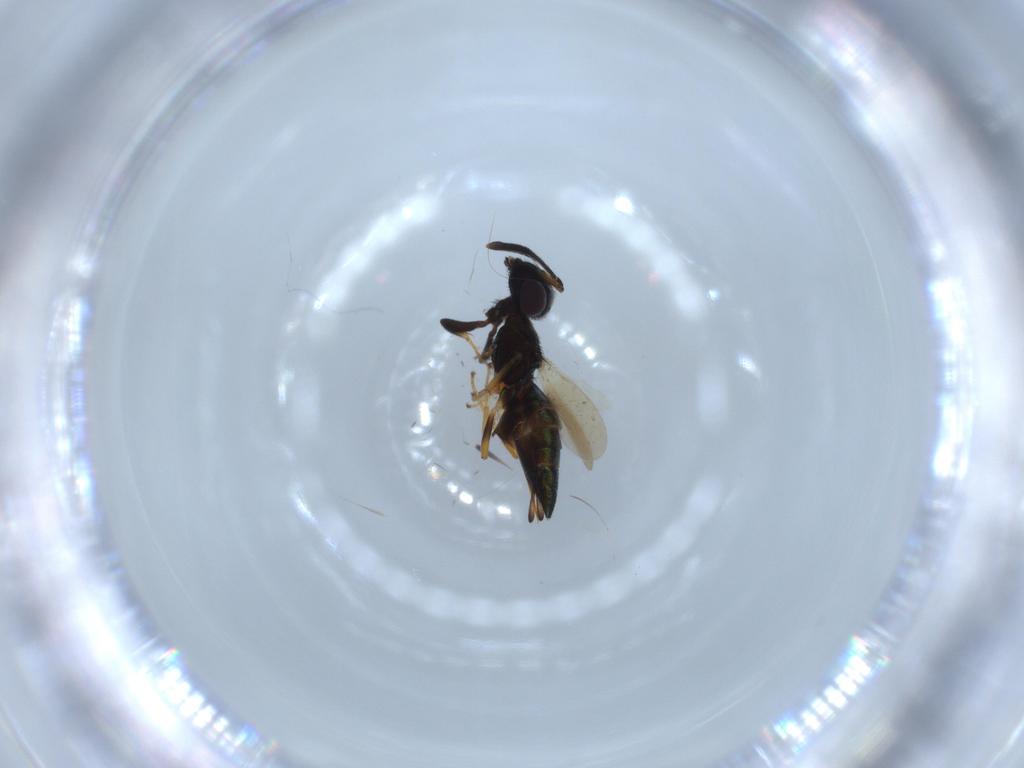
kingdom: Animalia
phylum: Arthropoda
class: Insecta
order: Hymenoptera
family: Eupelmidae
